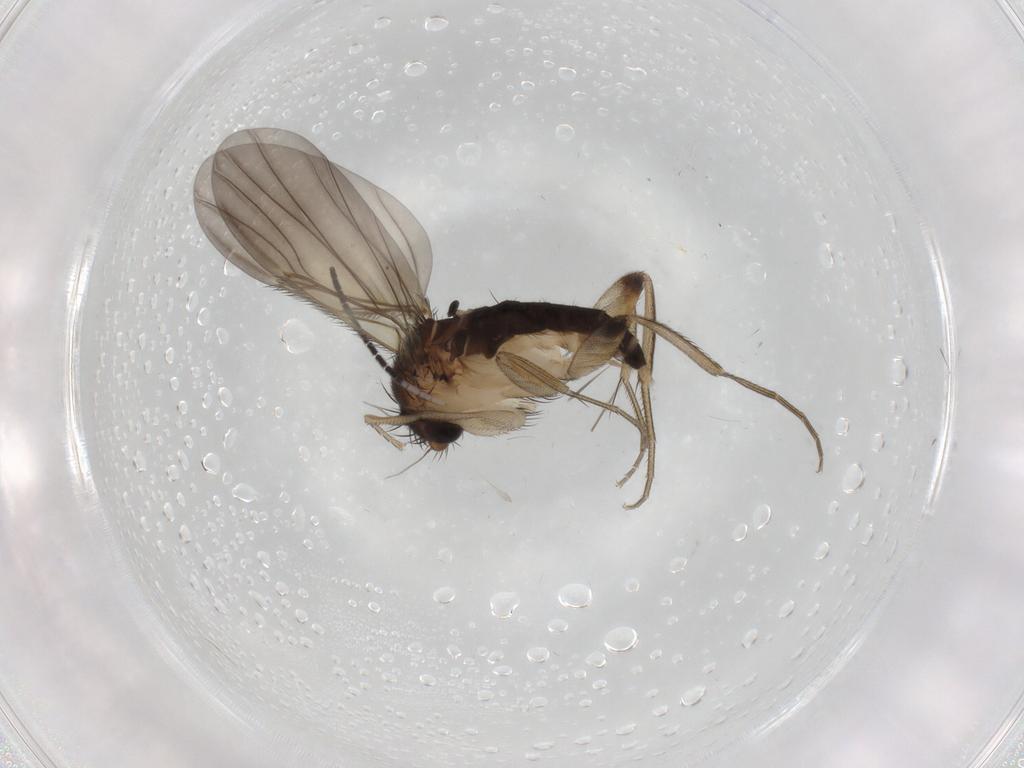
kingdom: Animalia
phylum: Arthropoda
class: Insecta
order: Diptera
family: Phoridae
